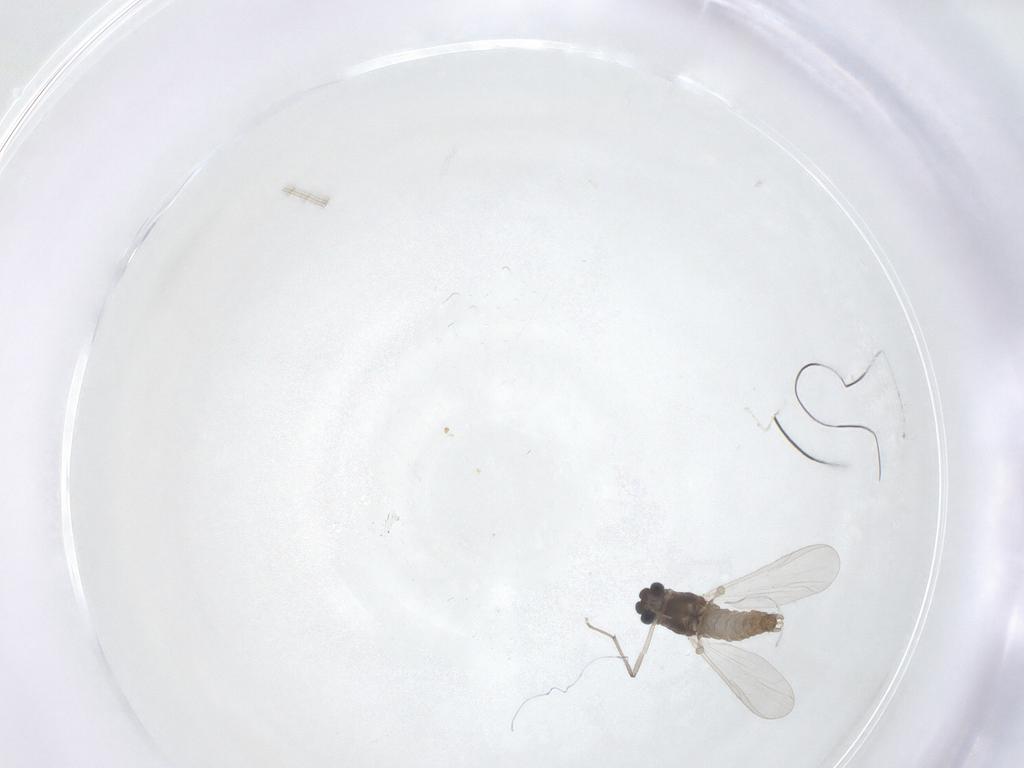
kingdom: Animalia
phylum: Arthropoda
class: Insecta
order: Diptera
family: Chironomidae
